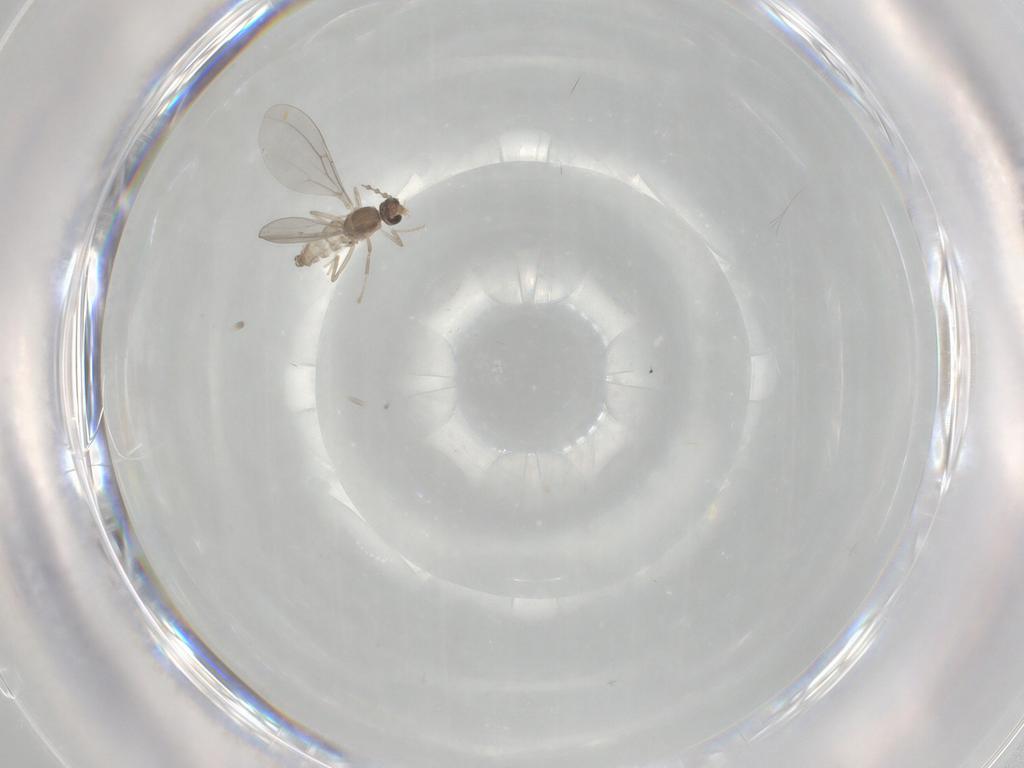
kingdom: Animalia
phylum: Arthropoda
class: Insecta
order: Diptera
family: Cecidomyiidae
